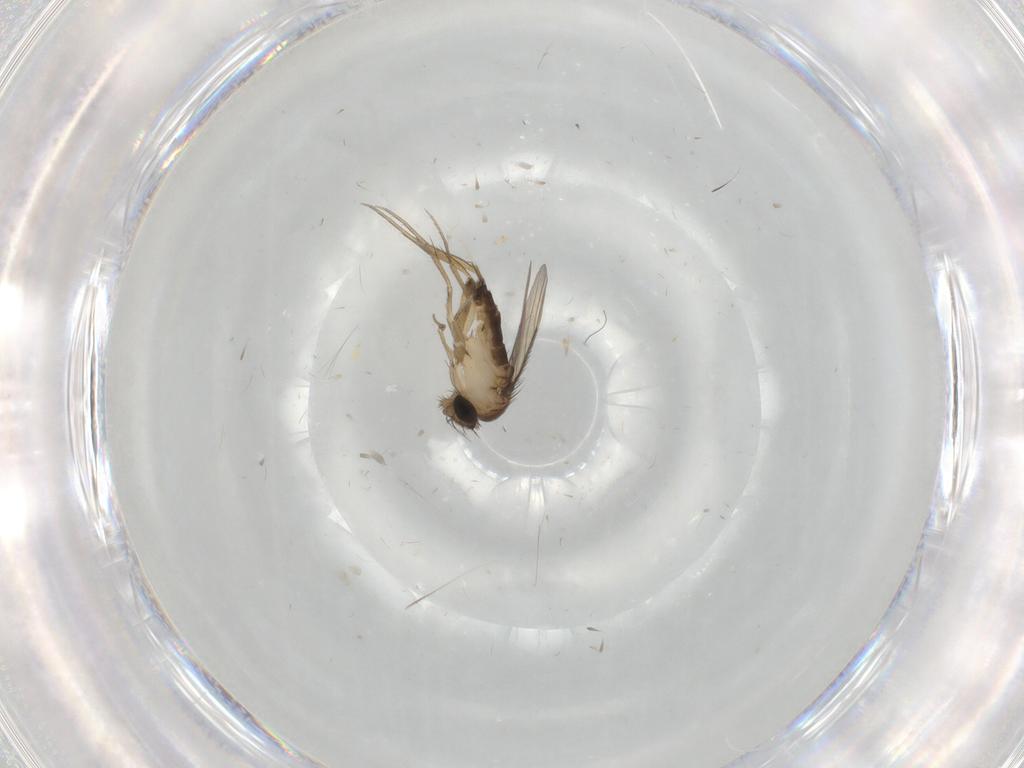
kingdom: Animalia
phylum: Arthropoda
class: Insecta
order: Diptera
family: Phoridae
